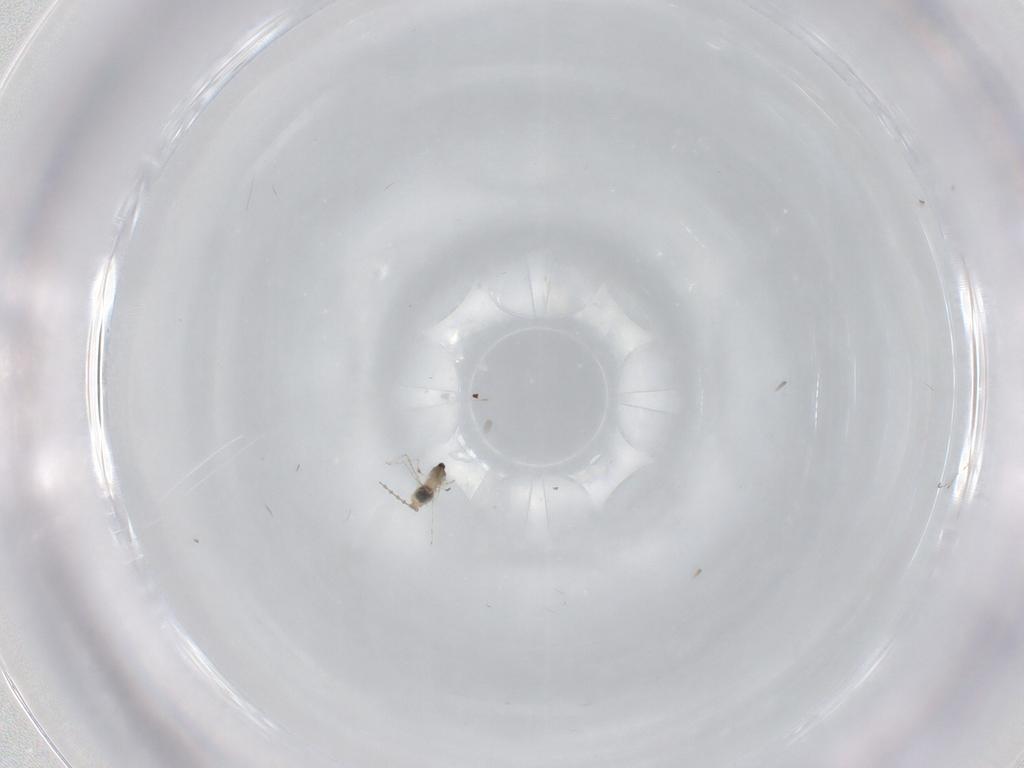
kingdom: Animalia
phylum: Arthropoda
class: Insecta
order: Diptera
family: Cecidomyiidae
